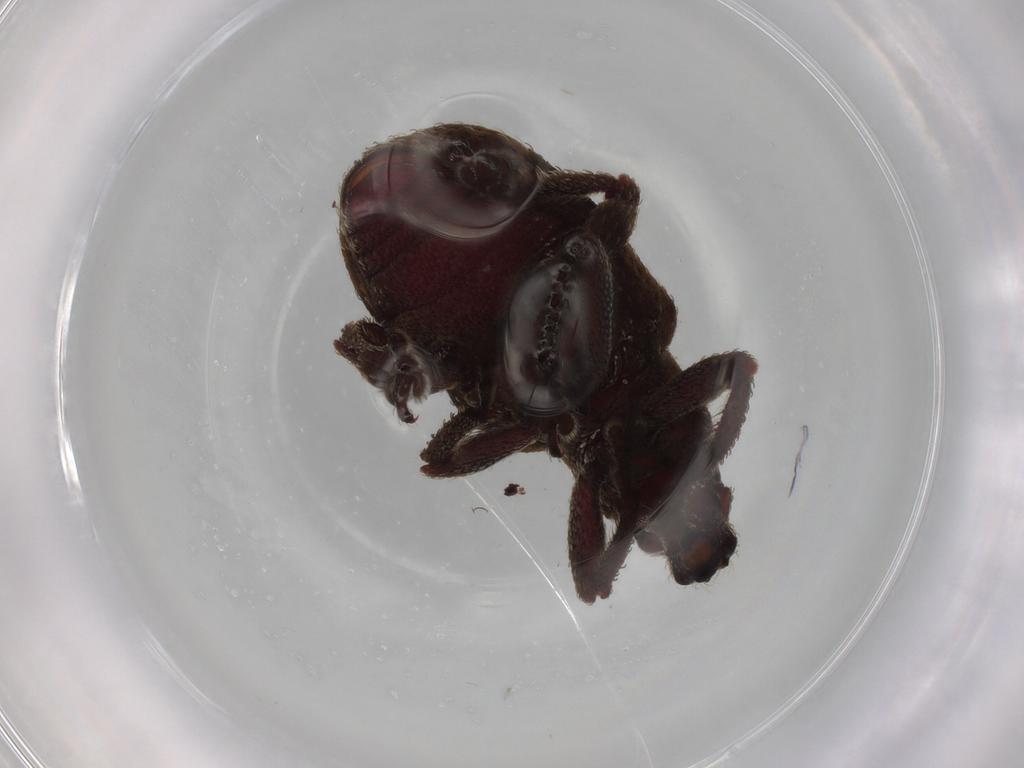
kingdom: Animalia
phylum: Arthropoda
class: Insecta
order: Coleoptera
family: Curculionidae
